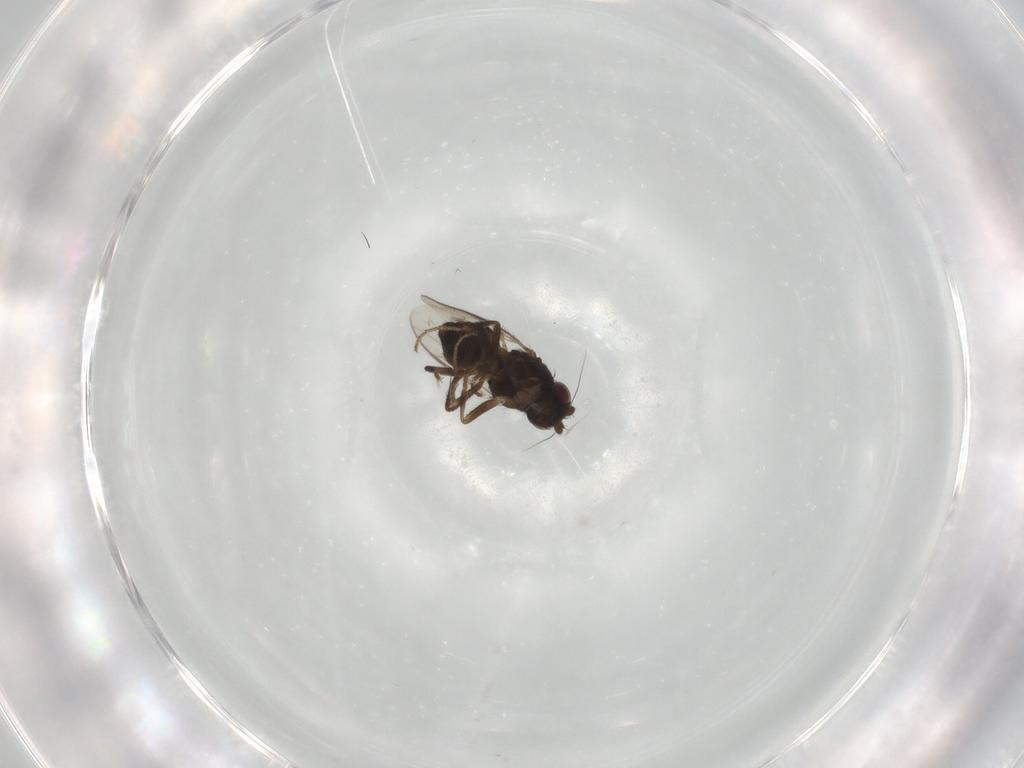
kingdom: Animalia
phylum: Arthropoda
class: Insecta
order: Diptera
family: Sphaeroceridae
